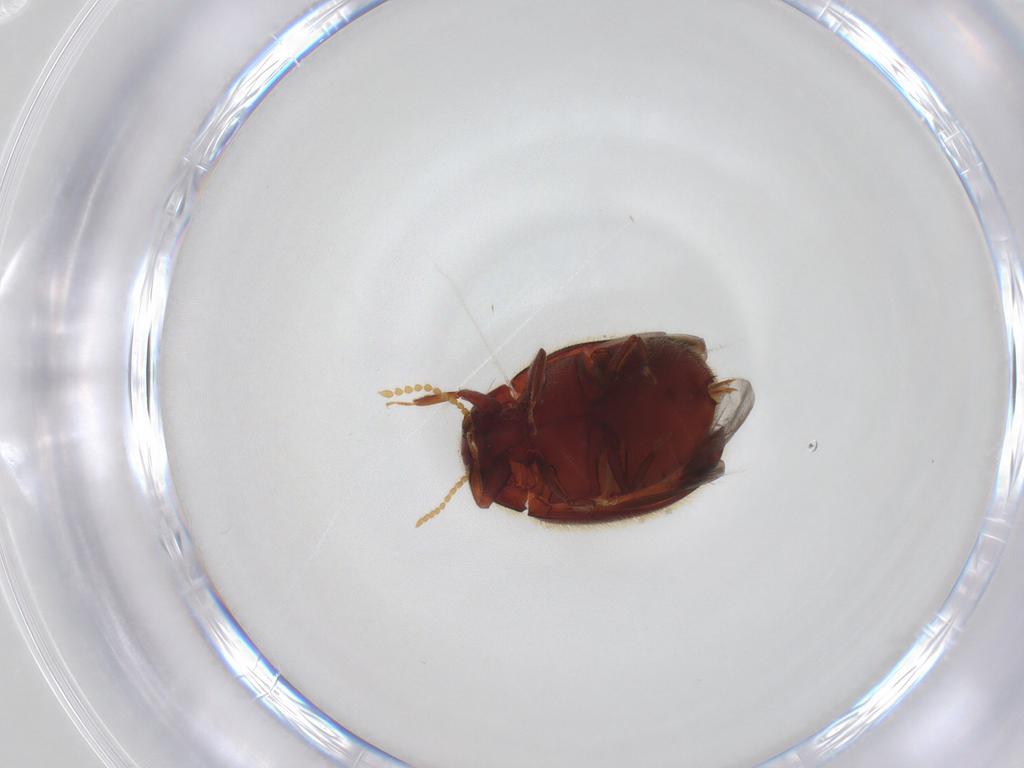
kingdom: Animalia
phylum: Arthropoda
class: Insecta
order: Coleoptera
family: Limnichidae
